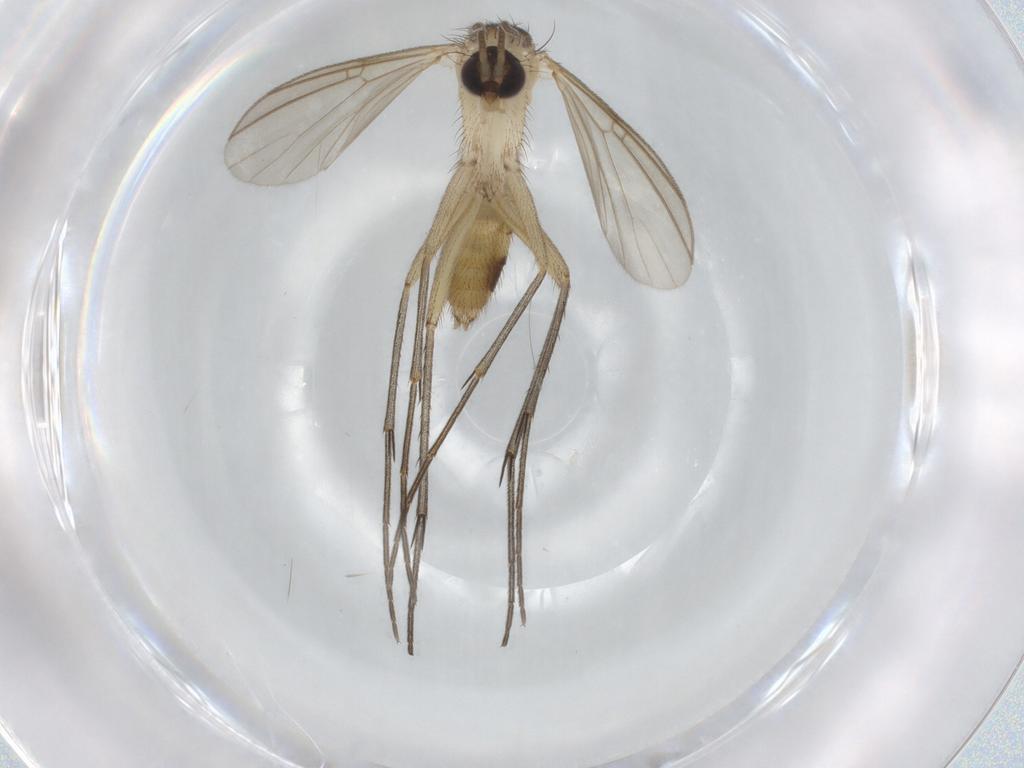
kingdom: Animalia
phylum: Arthropoda
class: Insecta
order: Diptera
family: Mycetophilidae
